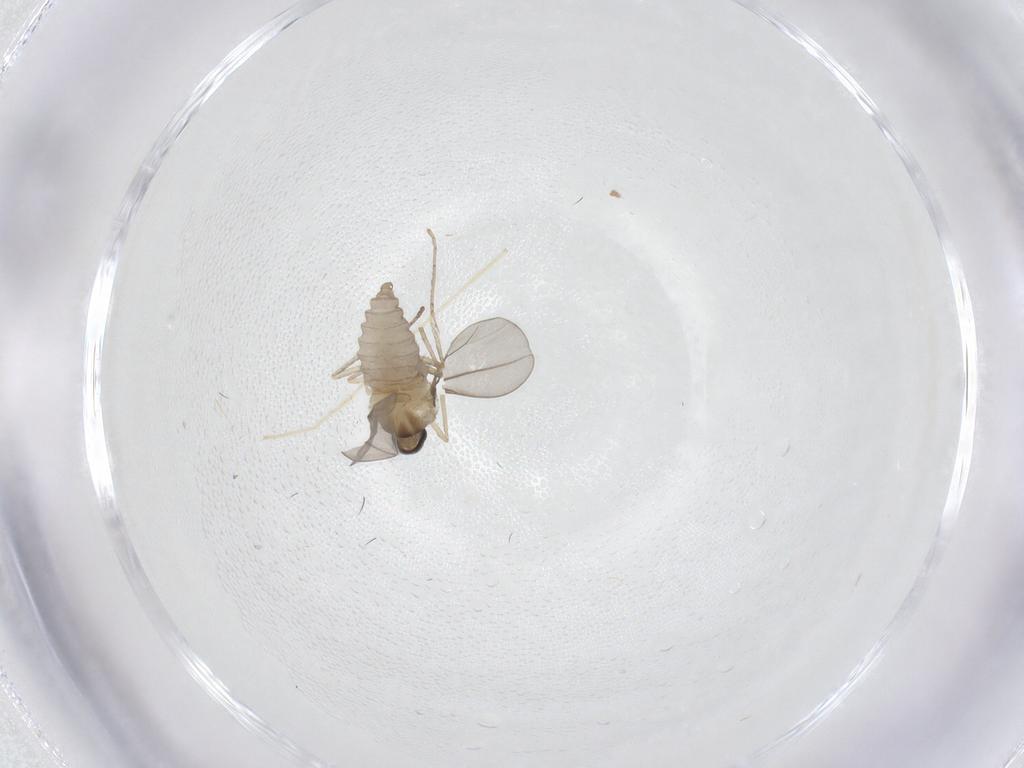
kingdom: Animalia
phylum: Arthropoda
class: Insecta
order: Diptera
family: Cecidomyiidae
